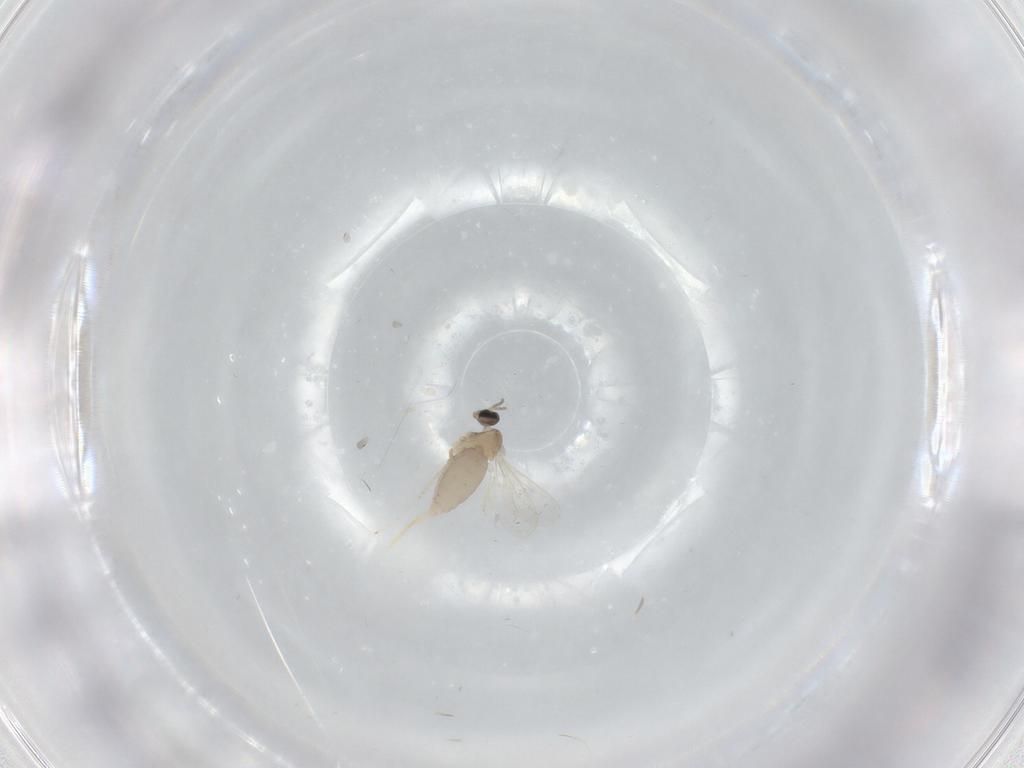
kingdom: Animalia
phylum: Arthropoda
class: Insecta
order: Diptera
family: Cecidomyiidae
